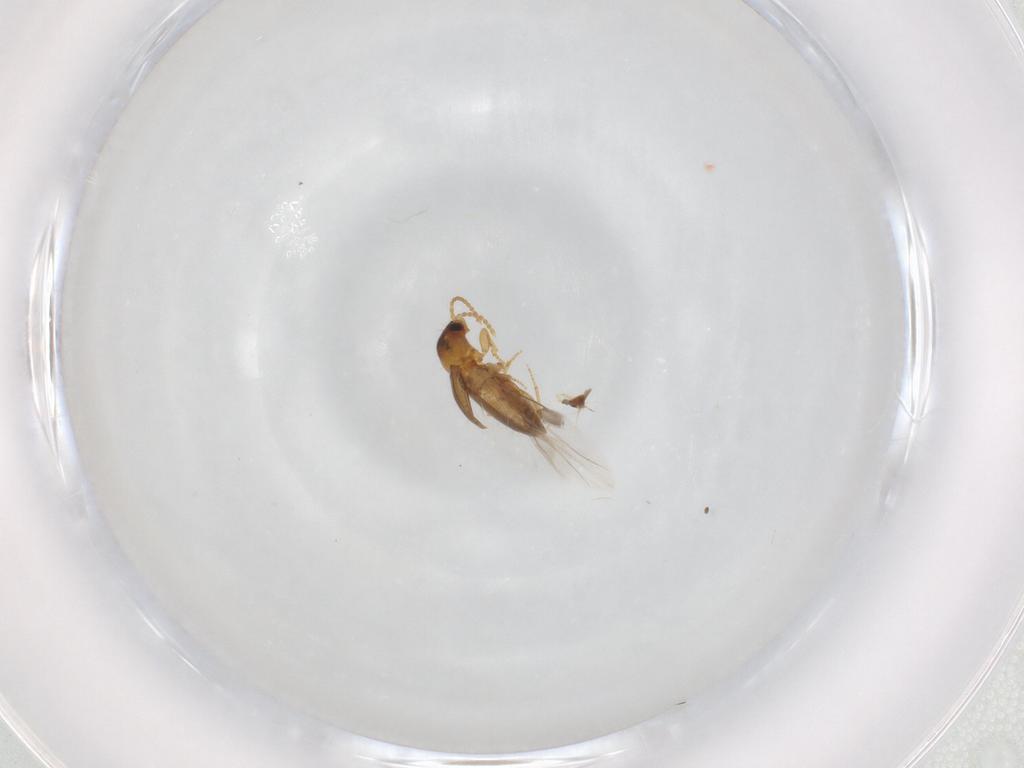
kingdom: Animalia
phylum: Arthropoda
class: Insecta
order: Coleoptera
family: Carabidae
